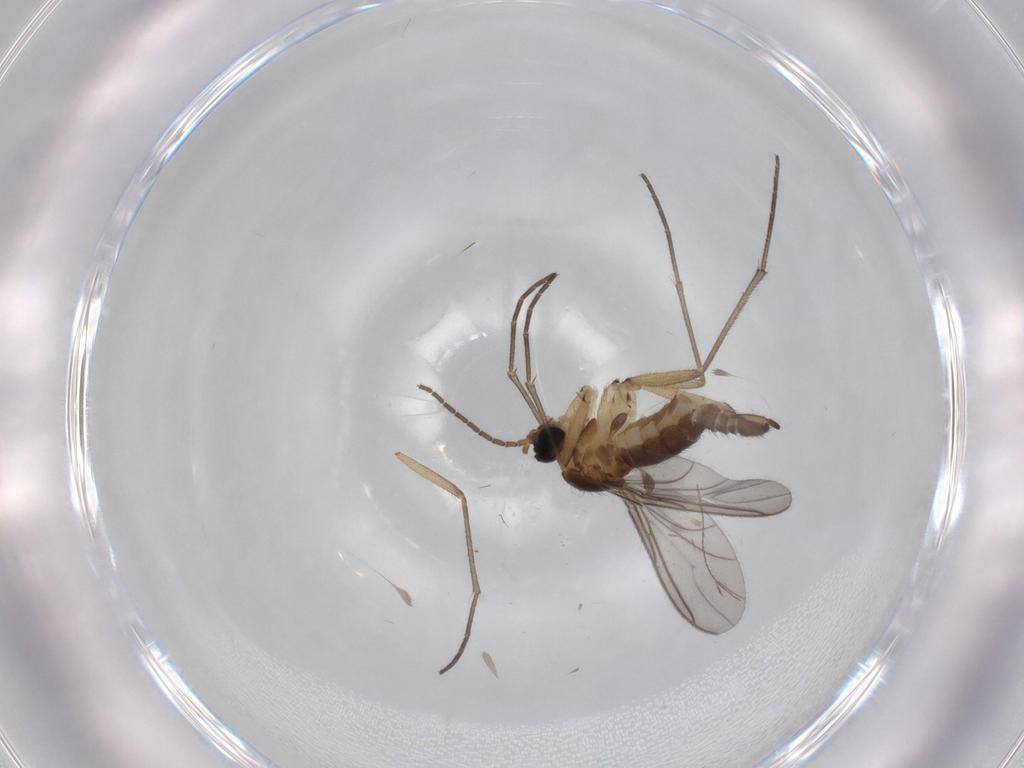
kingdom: Animalia
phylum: Arthropoda
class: Insecta
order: Diptera
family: Sciaridae
